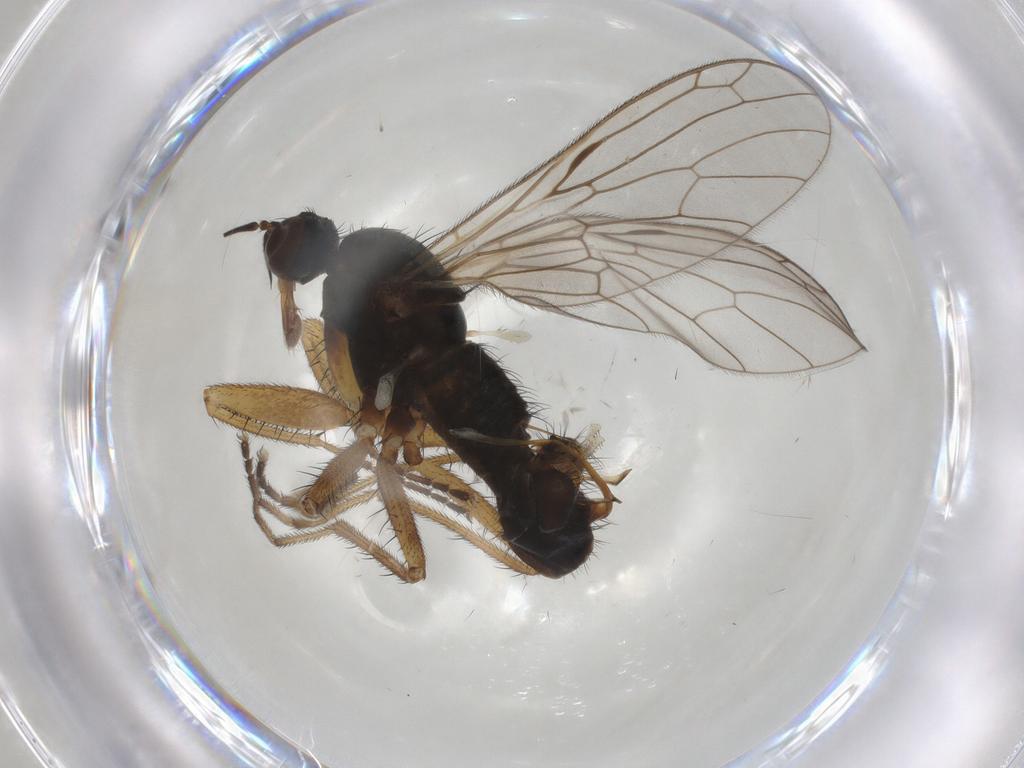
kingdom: Animalia
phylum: Arthropoda
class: Insecta
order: Diptera
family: Empididae
